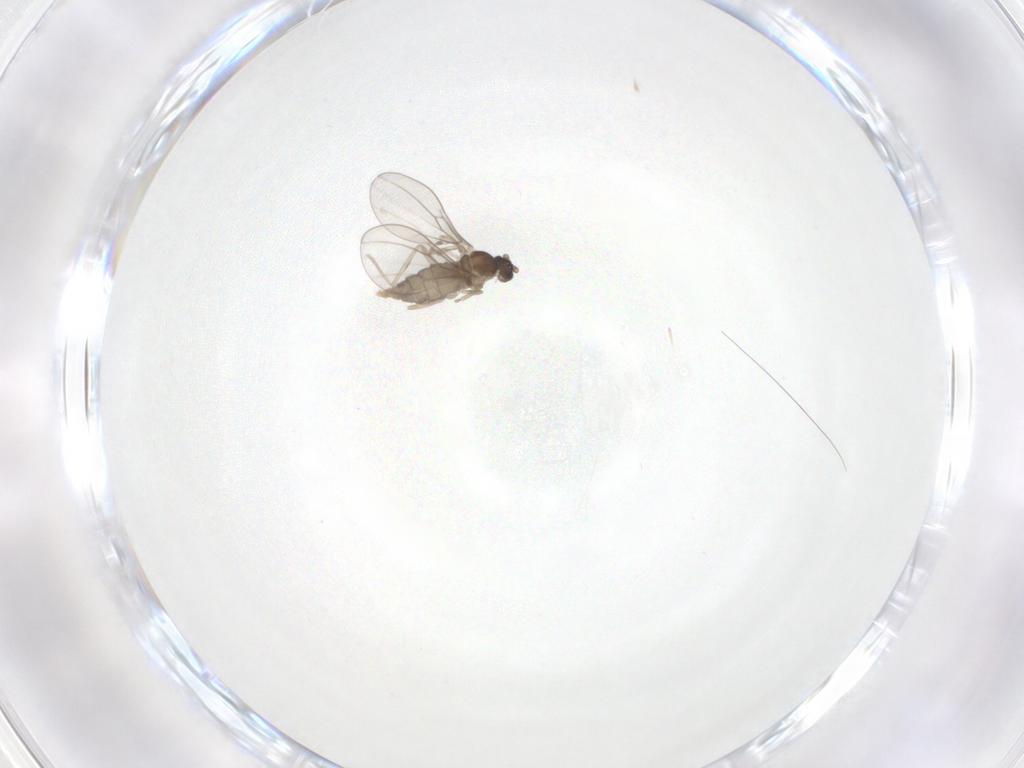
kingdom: Animalia
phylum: Arthropoda
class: Insecta
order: Diptera
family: Cecidomyiidae
